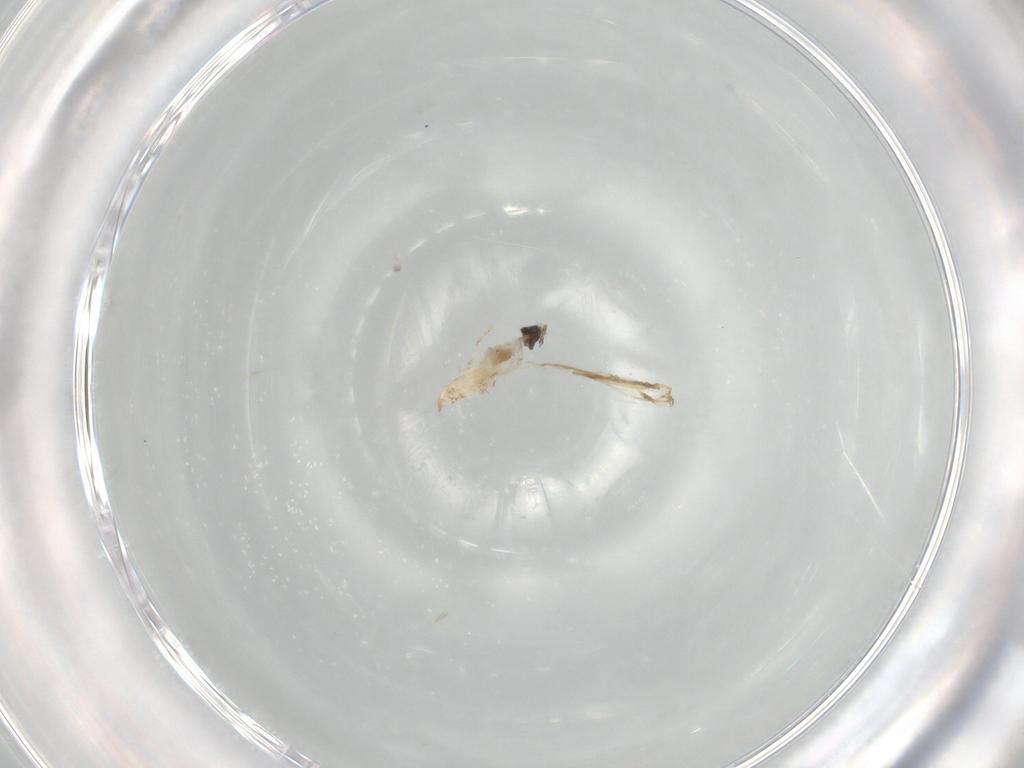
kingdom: Animalia
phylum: Arthropoda
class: Insecta
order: Diptera
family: Cecidomyiidae
